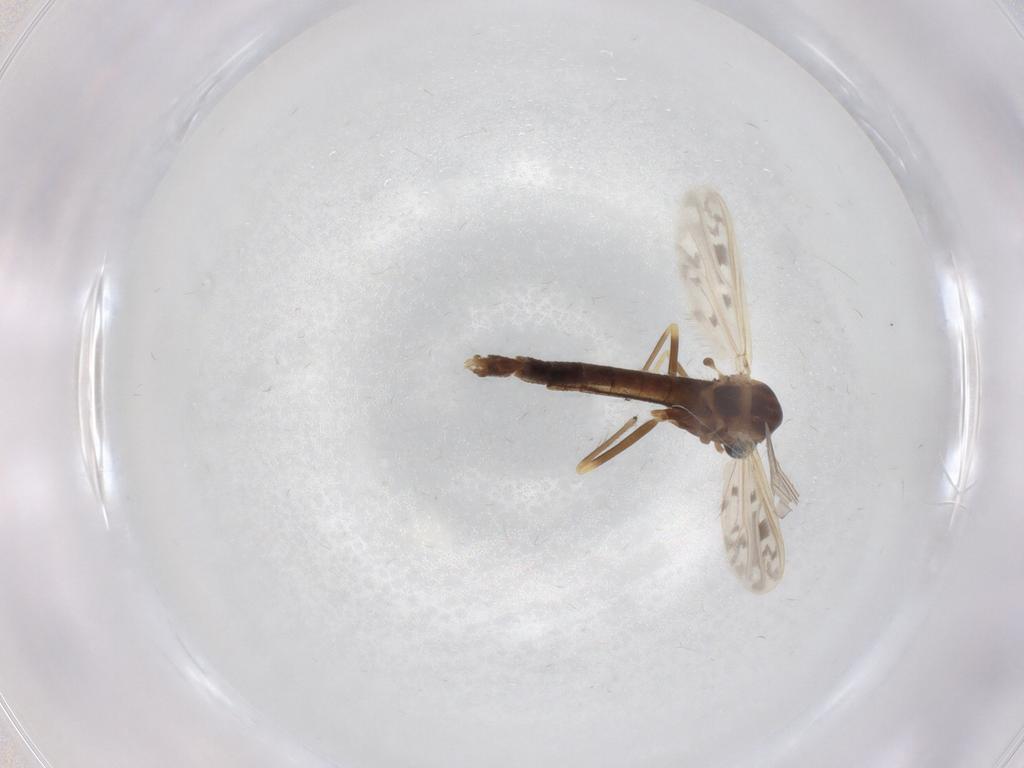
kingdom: Animalia
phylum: Arthropoda
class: Insecta
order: Diptera
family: Chironomidae
